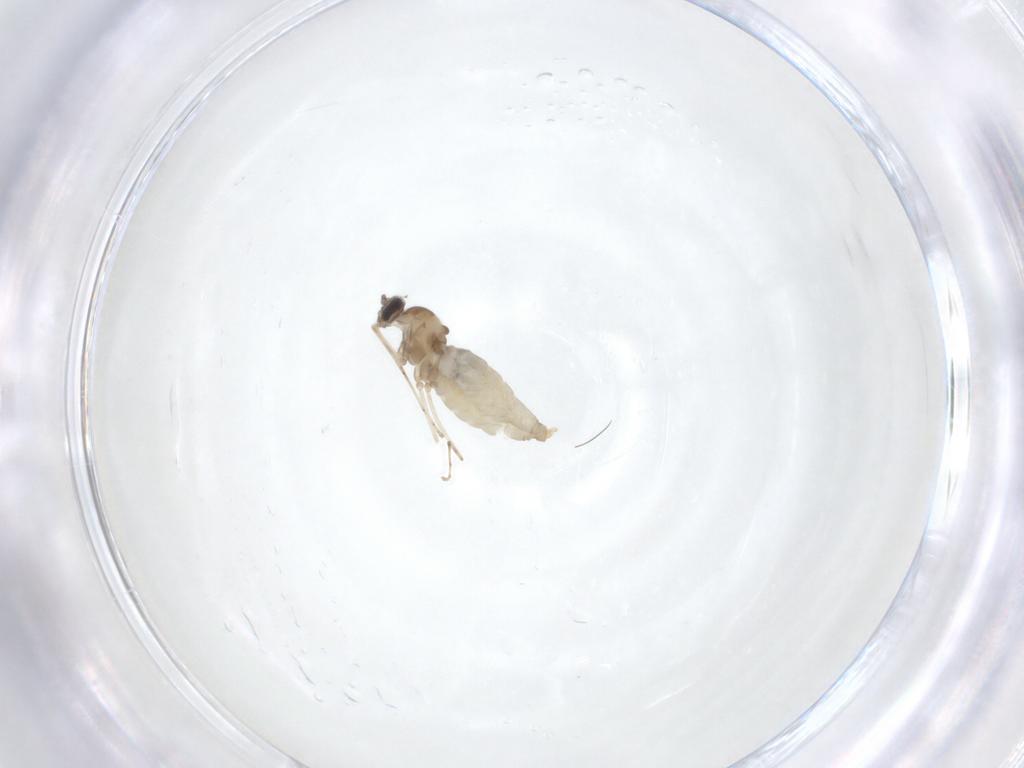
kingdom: Animalia
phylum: Arthropoda
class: Insecta
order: Diptera
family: Cecidomyiidae
